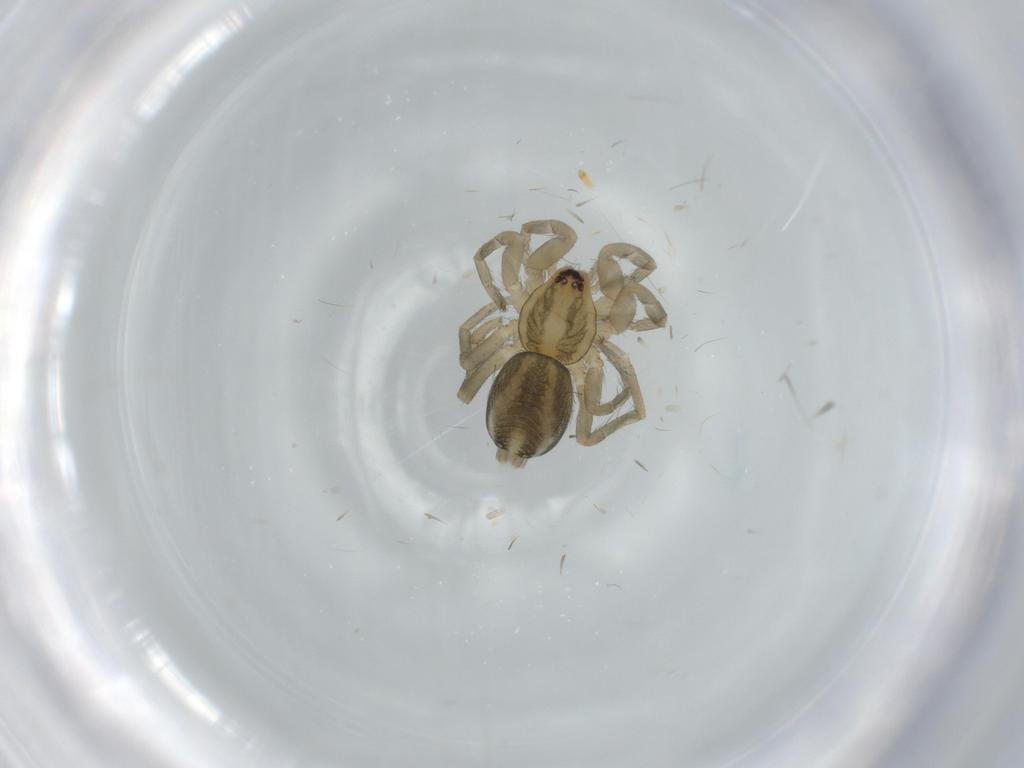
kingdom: Animalia
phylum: Arthropoda
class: Arachnida
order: Araneae
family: Gnaphosidae
